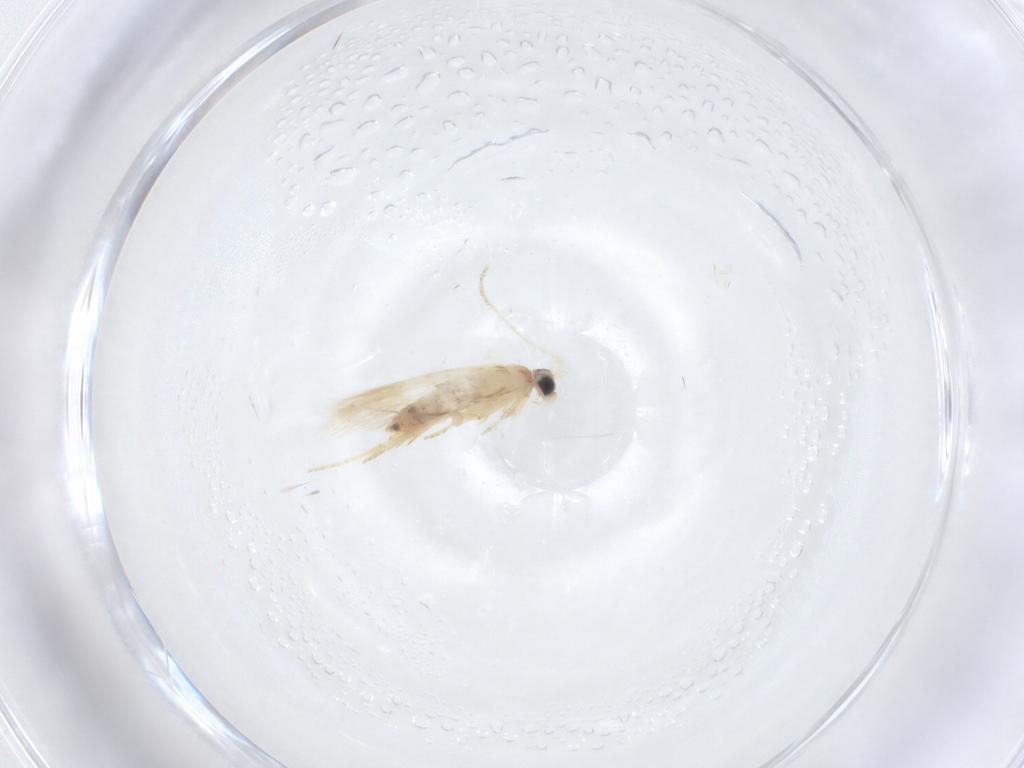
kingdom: Animalia
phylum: Arthropoda
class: Insecta
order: Lepidoptera
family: Nepticulidae
